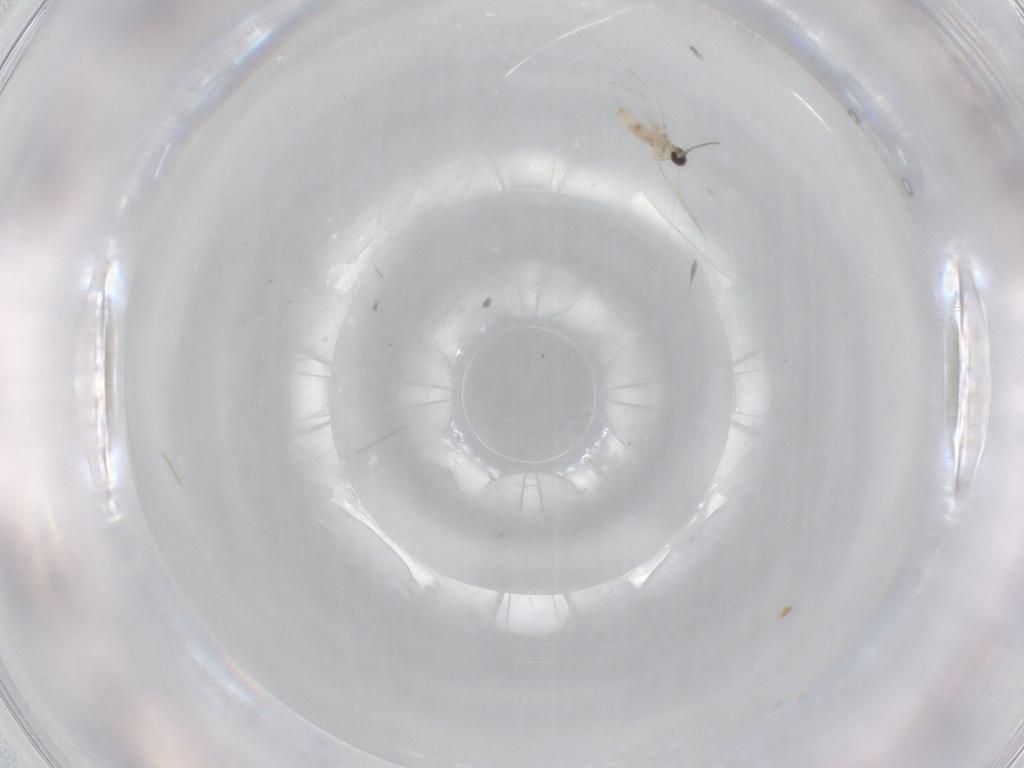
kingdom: Animalia
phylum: Arthropoda
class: Insecta
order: Diptera
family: Cecidomyiidae
